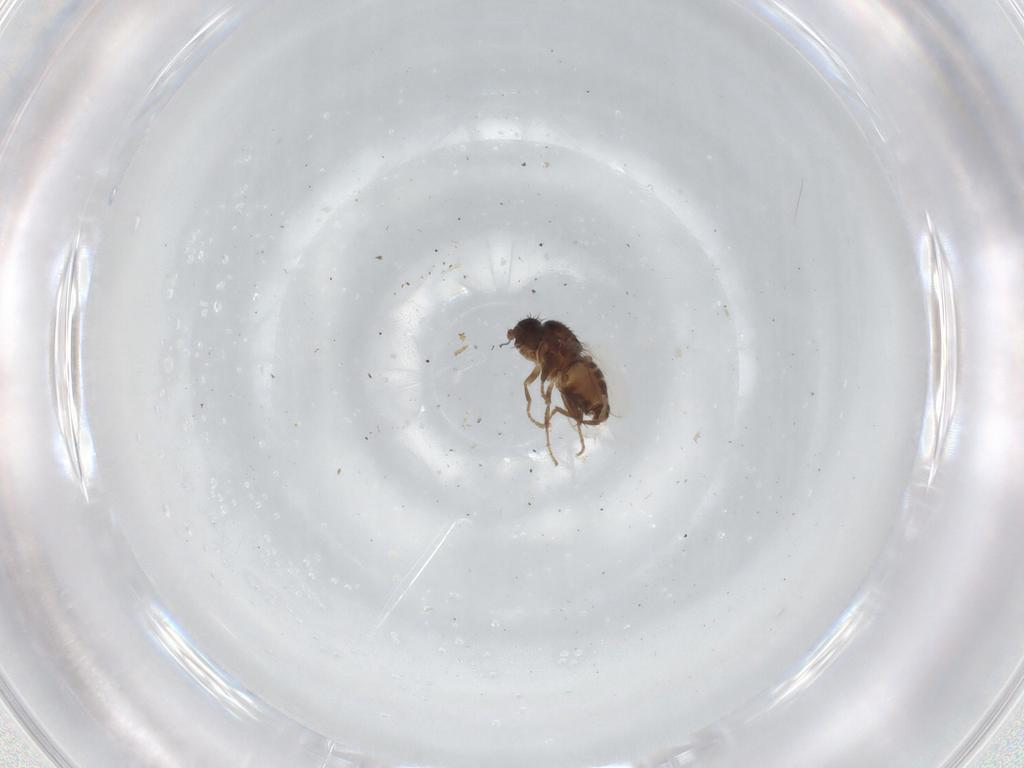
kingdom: Animalia
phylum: Arthropoda
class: Insecta
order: Diptera
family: Sphaeroceridae
